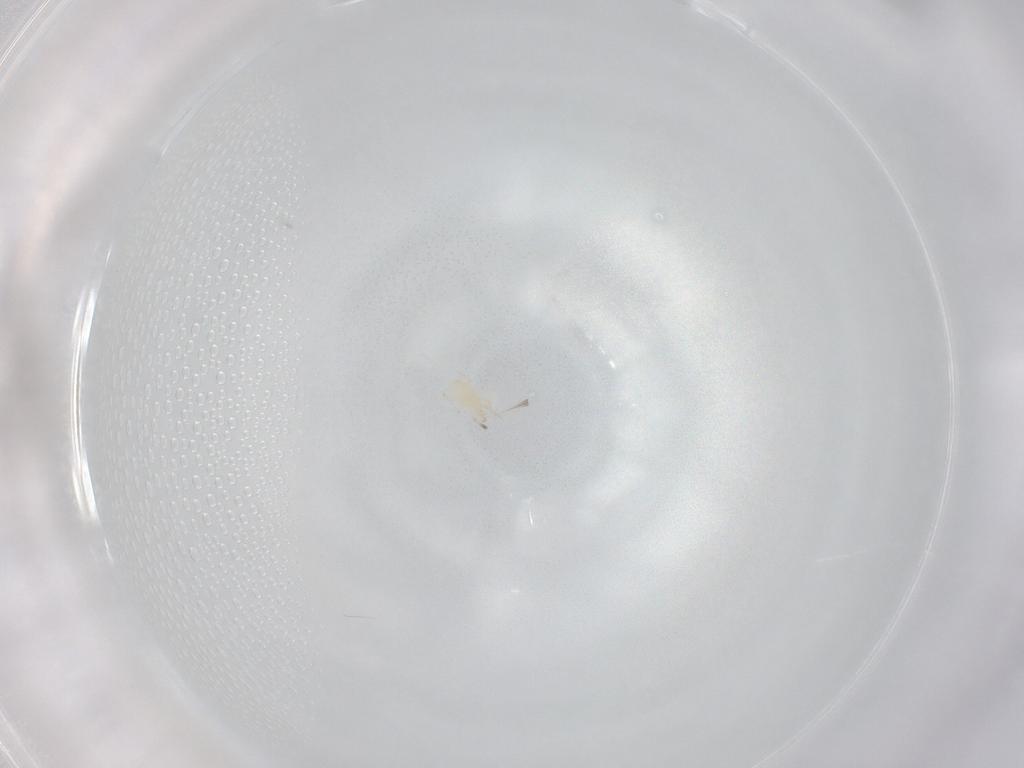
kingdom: Animalia
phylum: Arthropoda
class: Arachnida
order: Mesostigmata
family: Phytoseiidae
